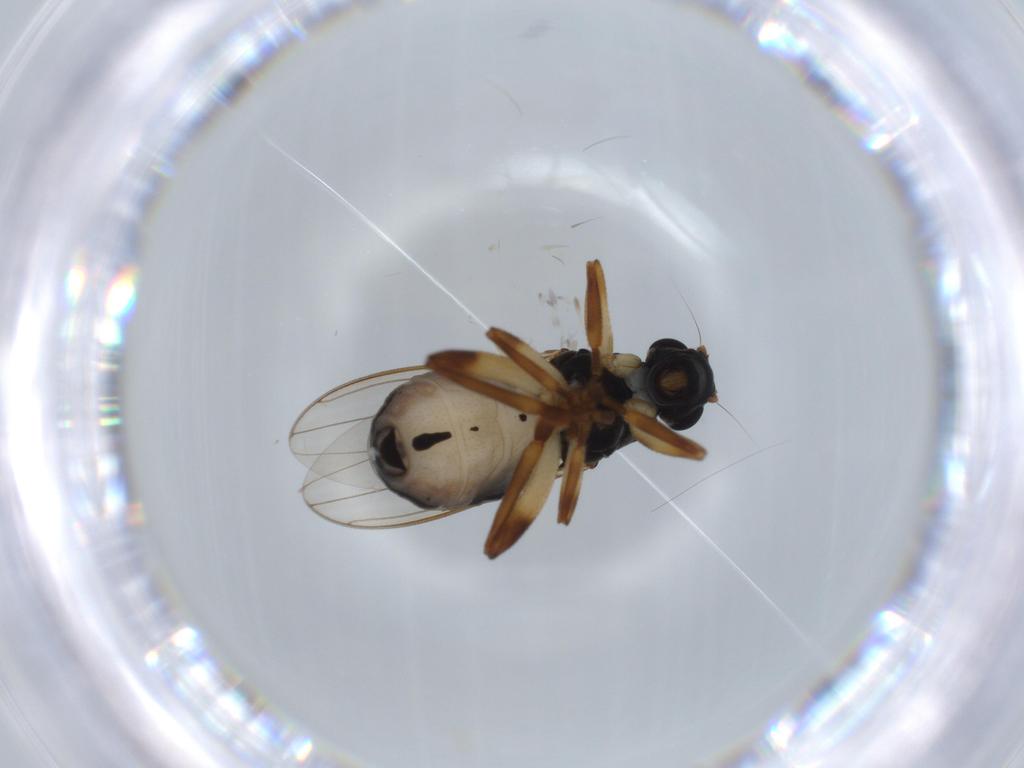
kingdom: Animalia
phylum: Arthropoda
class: Insecta
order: Diptera
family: Sphaeroceridae
